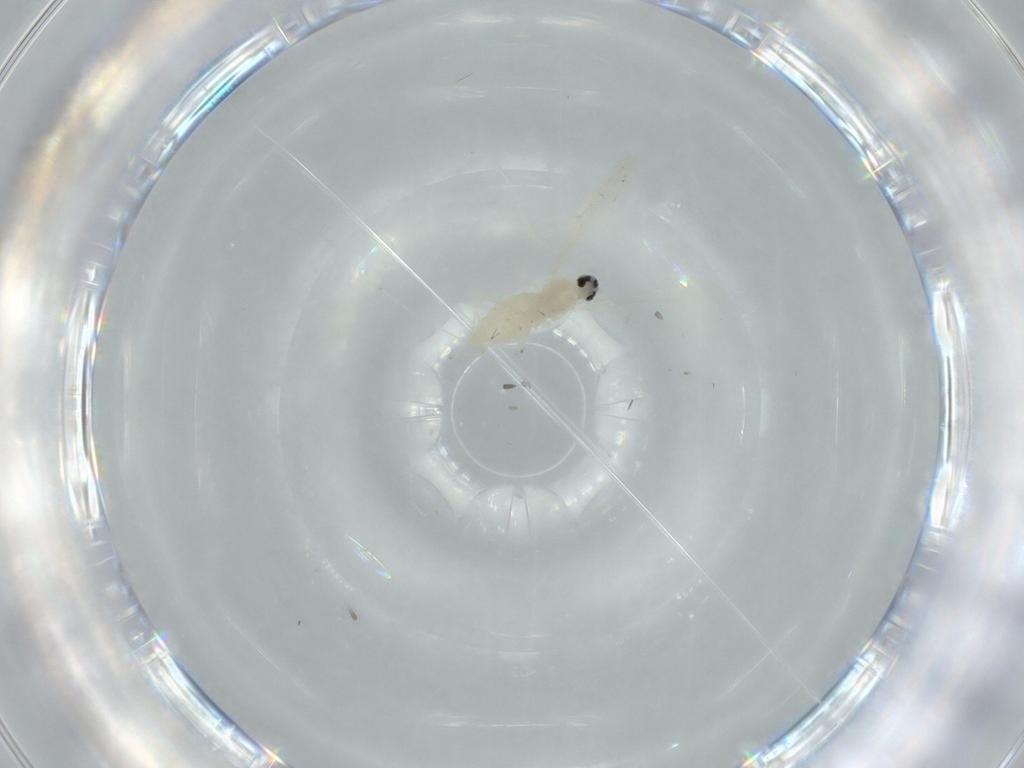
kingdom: Animalia
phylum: Arthropoda
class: Insecta
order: Diptera
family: Cecidomyiidae
